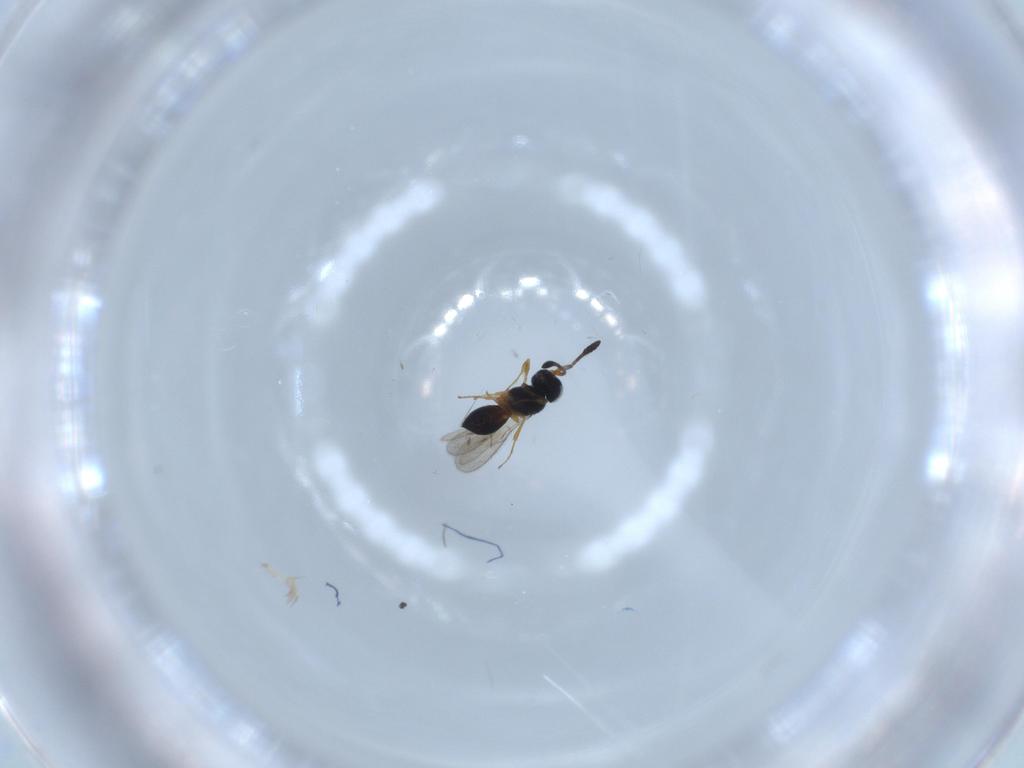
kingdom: Animalia
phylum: Arthropoda
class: Insecta
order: Hymenoptera
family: Scelionidae
